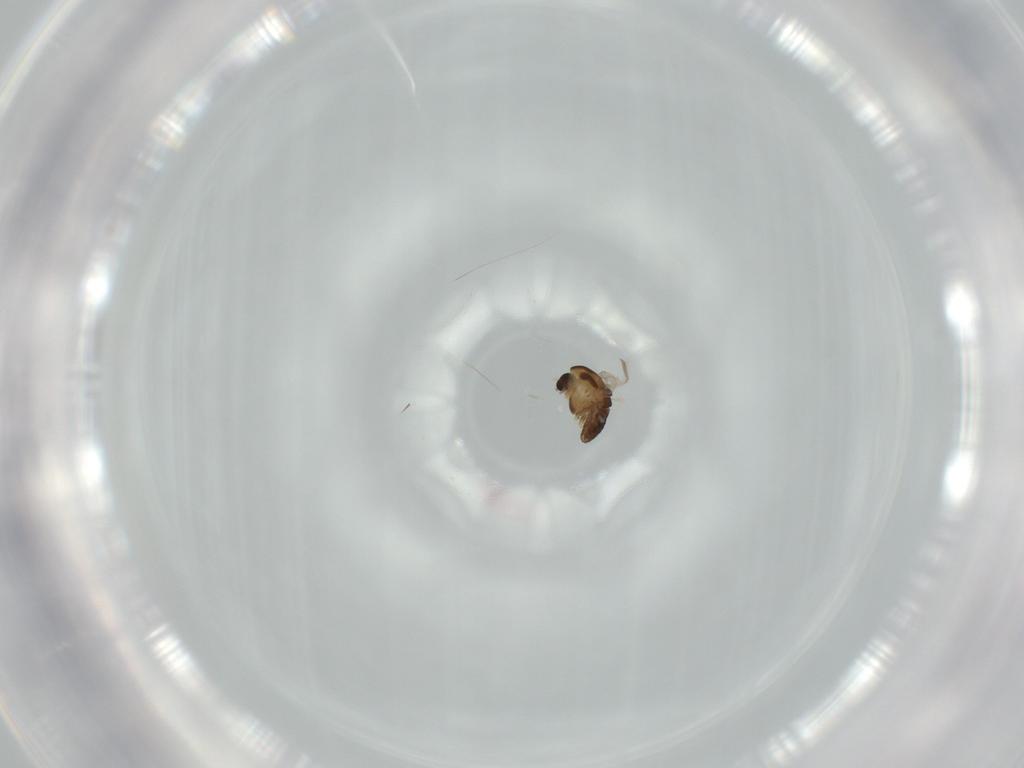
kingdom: Animalia
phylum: Arthropoda
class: Insecta
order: Diptera
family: Chironomidae
